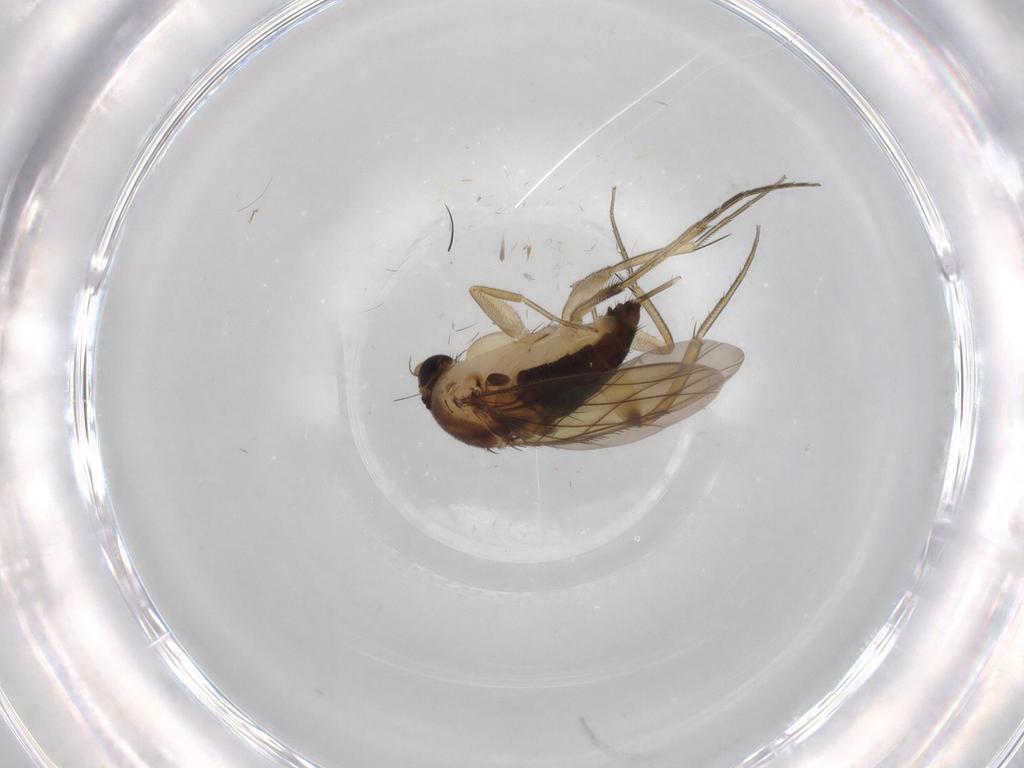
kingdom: Animalia
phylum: Arthropoda
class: Insecta
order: Diptera
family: Phoridae
